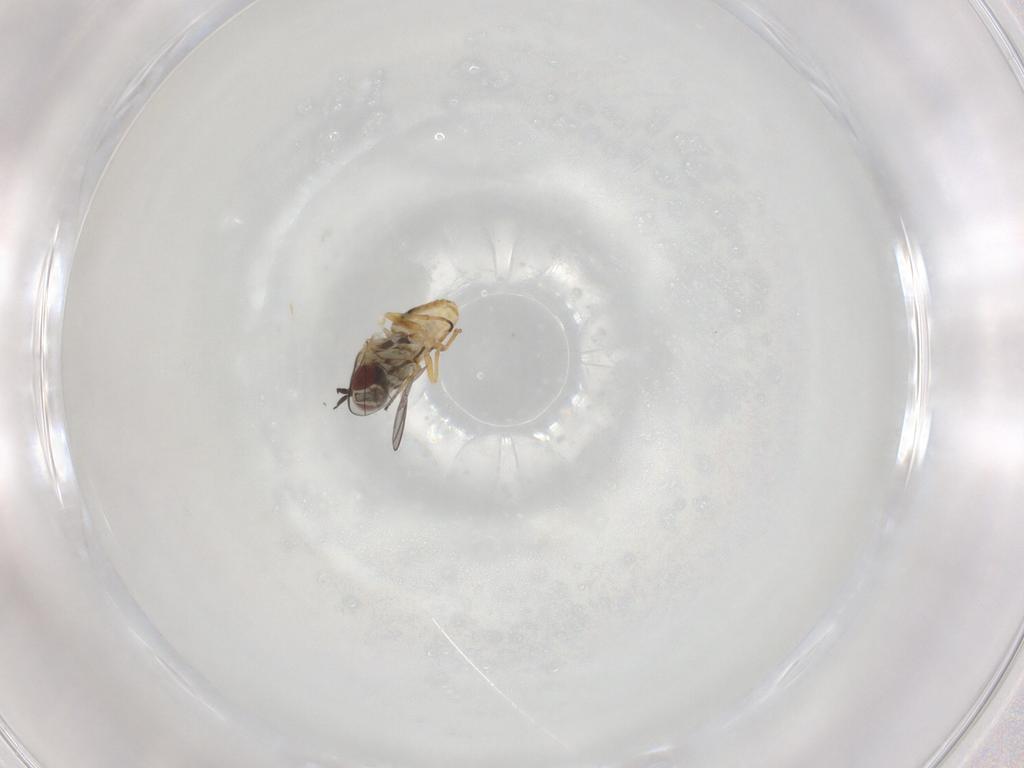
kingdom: Animalia
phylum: Arthropoda
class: Insecta
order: Diptera
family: Mythicomyiidae
